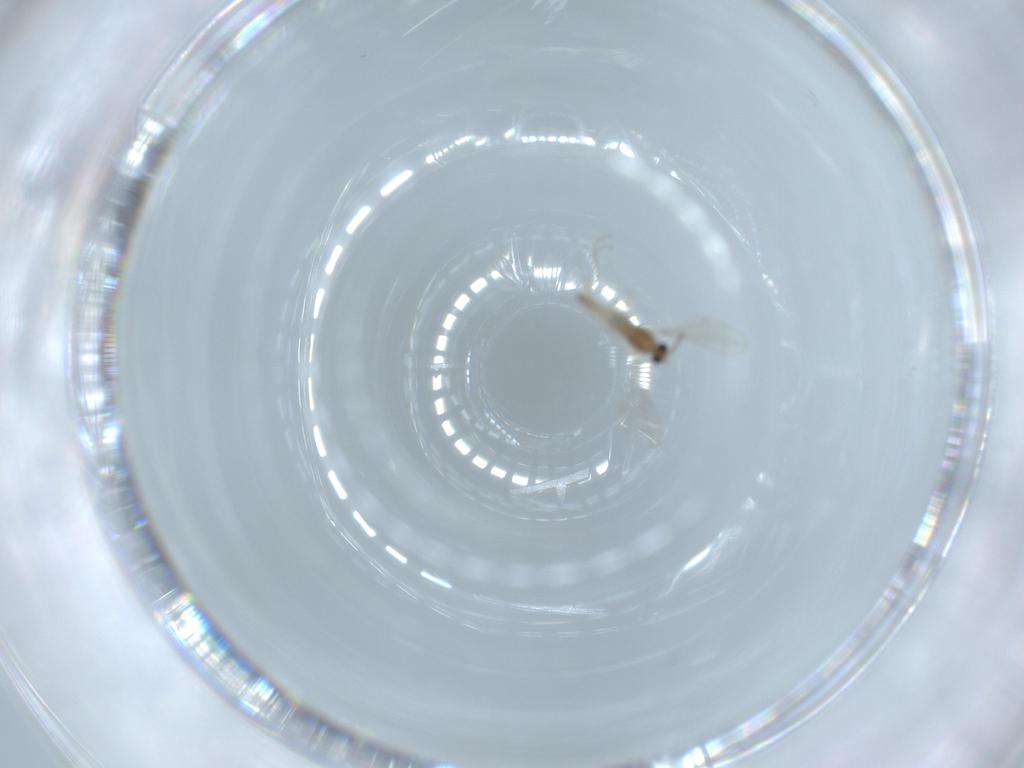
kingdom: Animalia
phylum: Arthropoda
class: Insecta
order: Diptera
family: Cecidomyiidae
